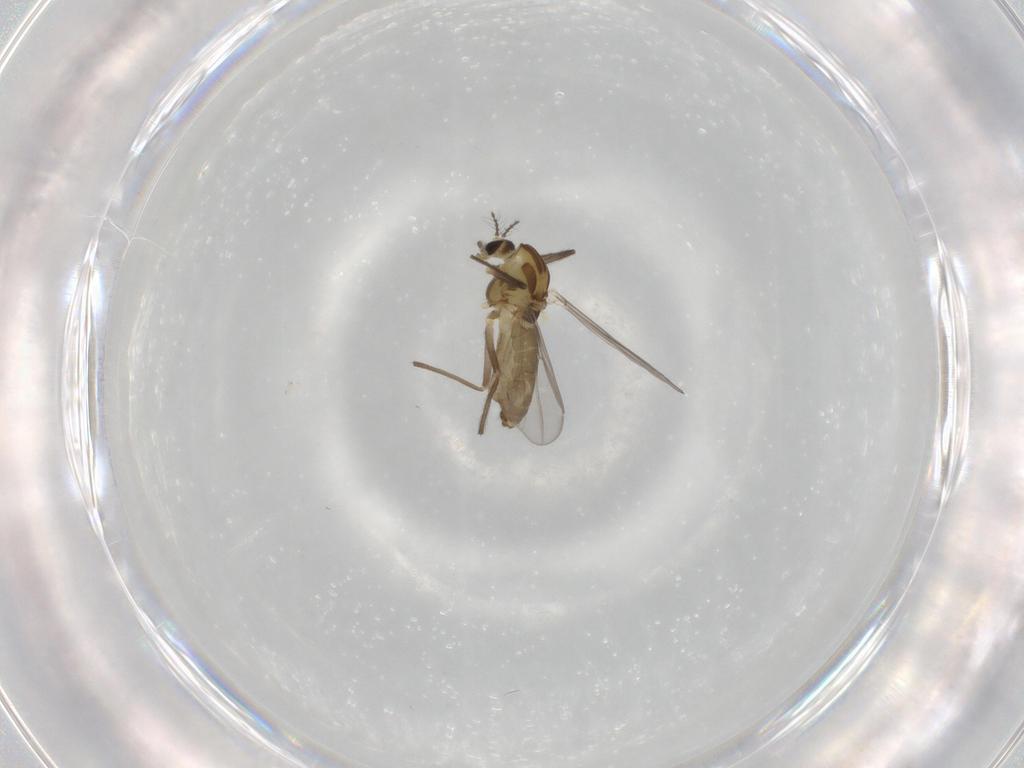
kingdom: Animalia
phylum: Arthropoda
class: Insecta
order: Diptera
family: Chironomidae
